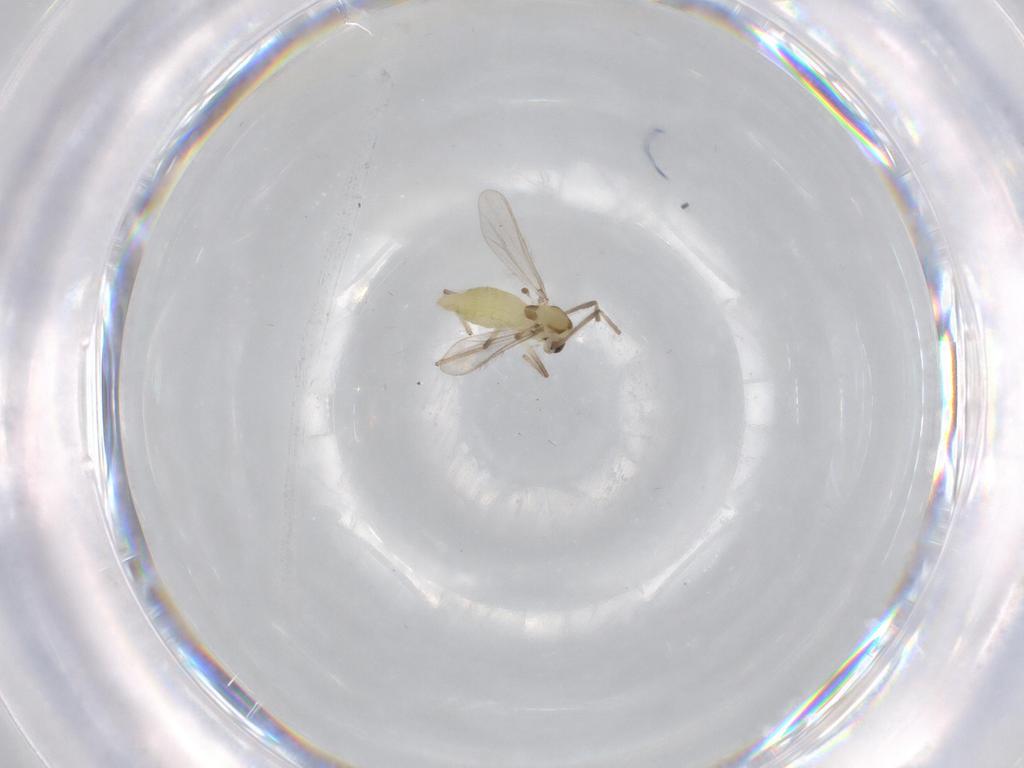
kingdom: Animalia
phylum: Arthropoda
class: Insecta
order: Diptera
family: Chironomidae
